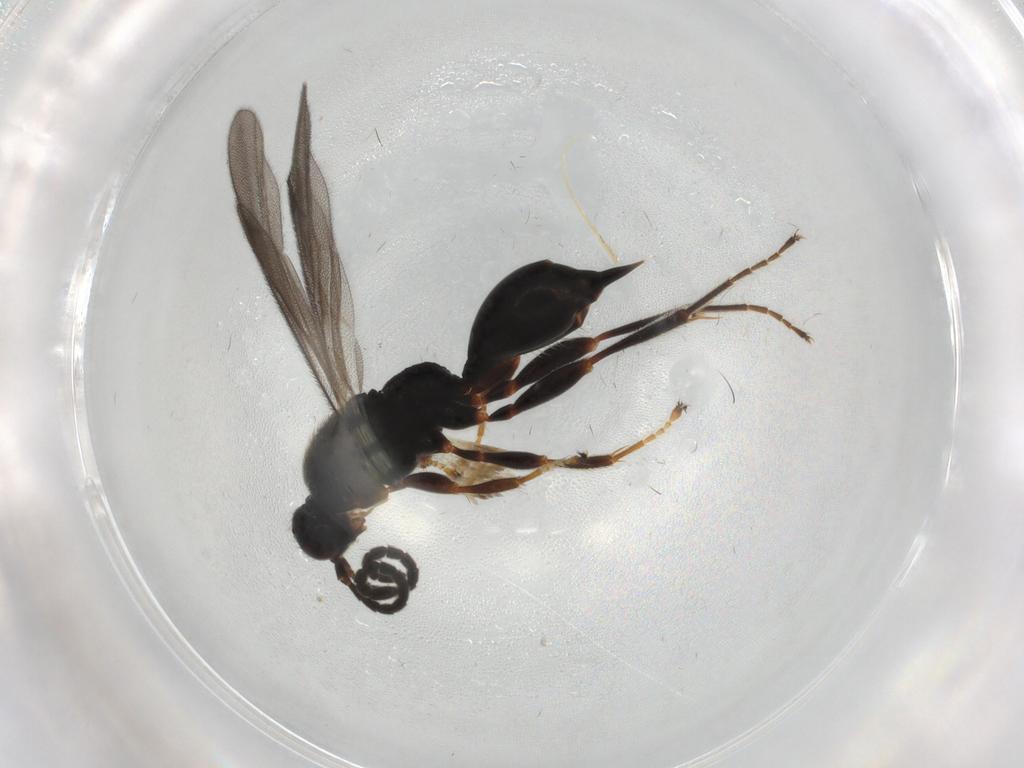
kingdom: Animalia
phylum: Arthropoda
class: Insecta
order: Hymenoptera
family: Proctotrupidae
